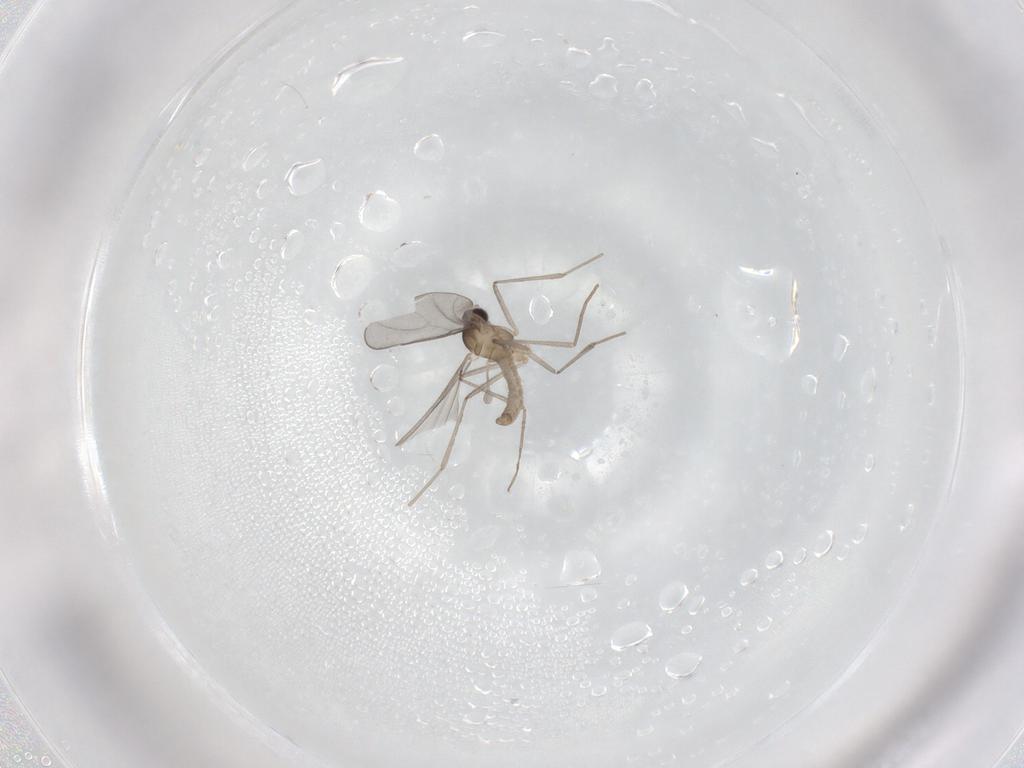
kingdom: Animalia
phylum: Arthropoda
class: Insecta
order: Diptera
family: Cecidomyiidae
